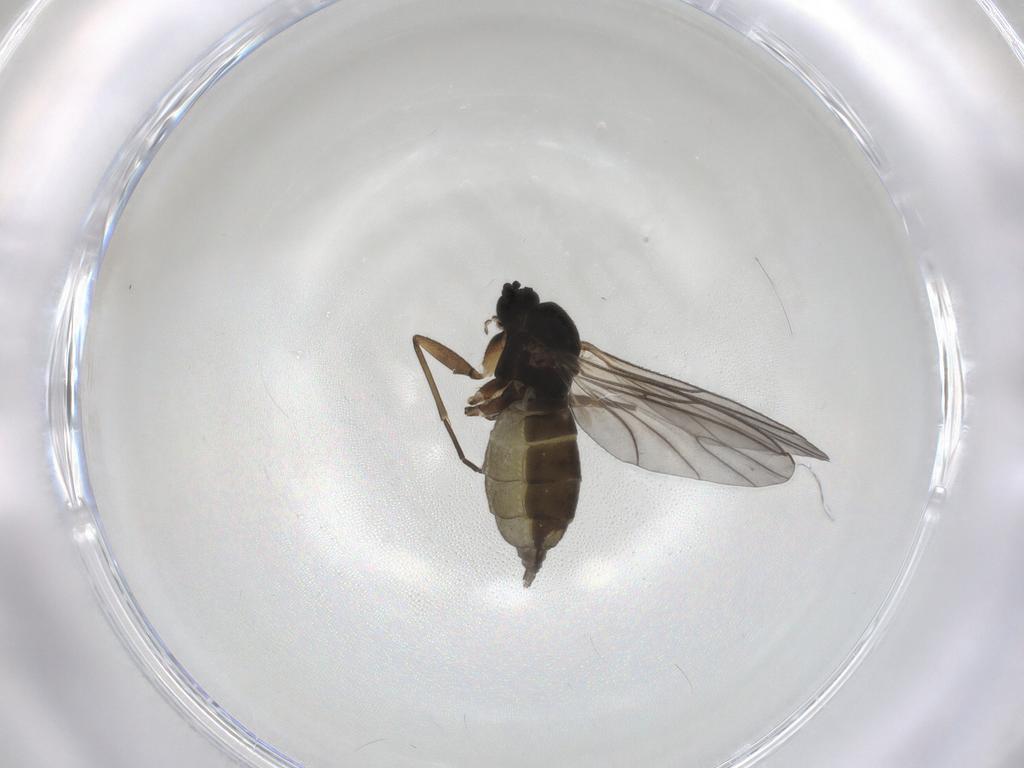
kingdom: Animalia
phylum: Arthropoda
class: Insecta
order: Diptera
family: Sciaridae
